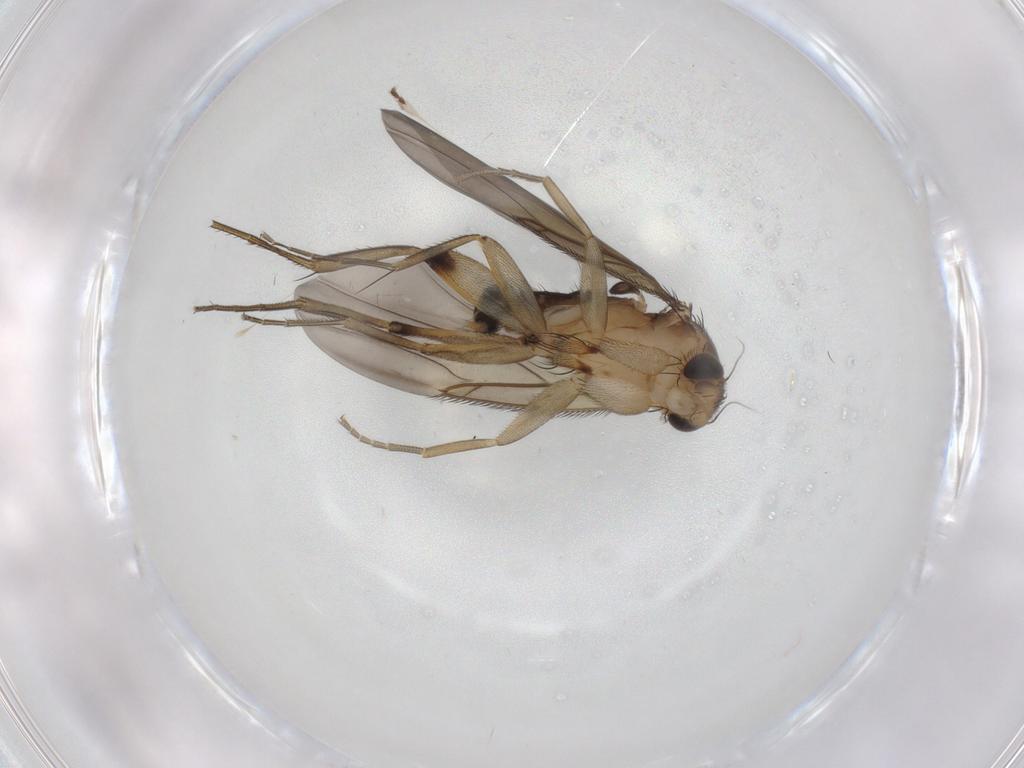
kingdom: Animalia
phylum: Arthropoda
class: Insecta
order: Diptera
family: Phoridae
